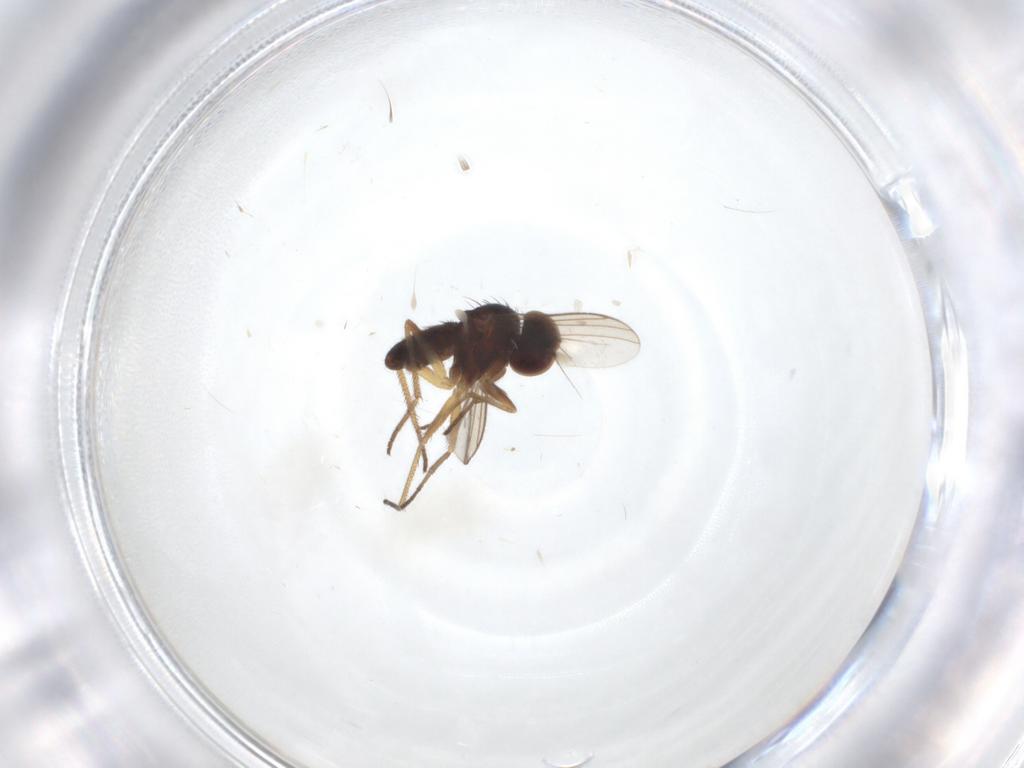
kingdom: Animalia
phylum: Arthropoda
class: Insecta
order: Diptera
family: Dolichopodidae
